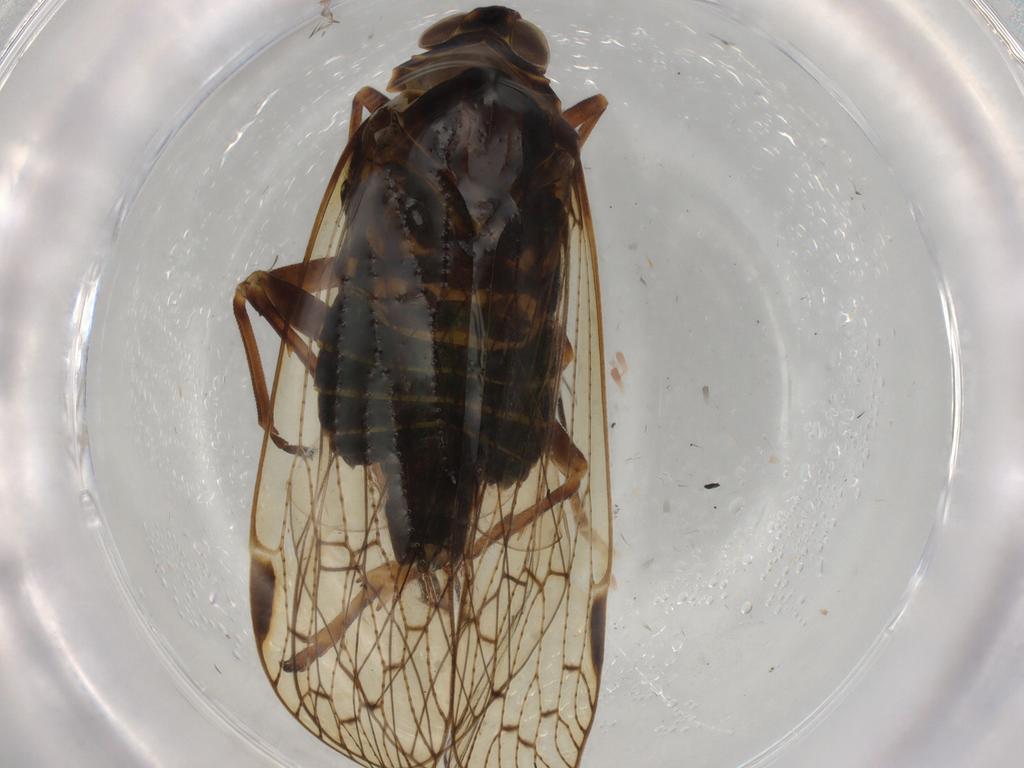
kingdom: Animalia
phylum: Arthropoda
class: Insecta
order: Hemiptera
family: Cixiidae
